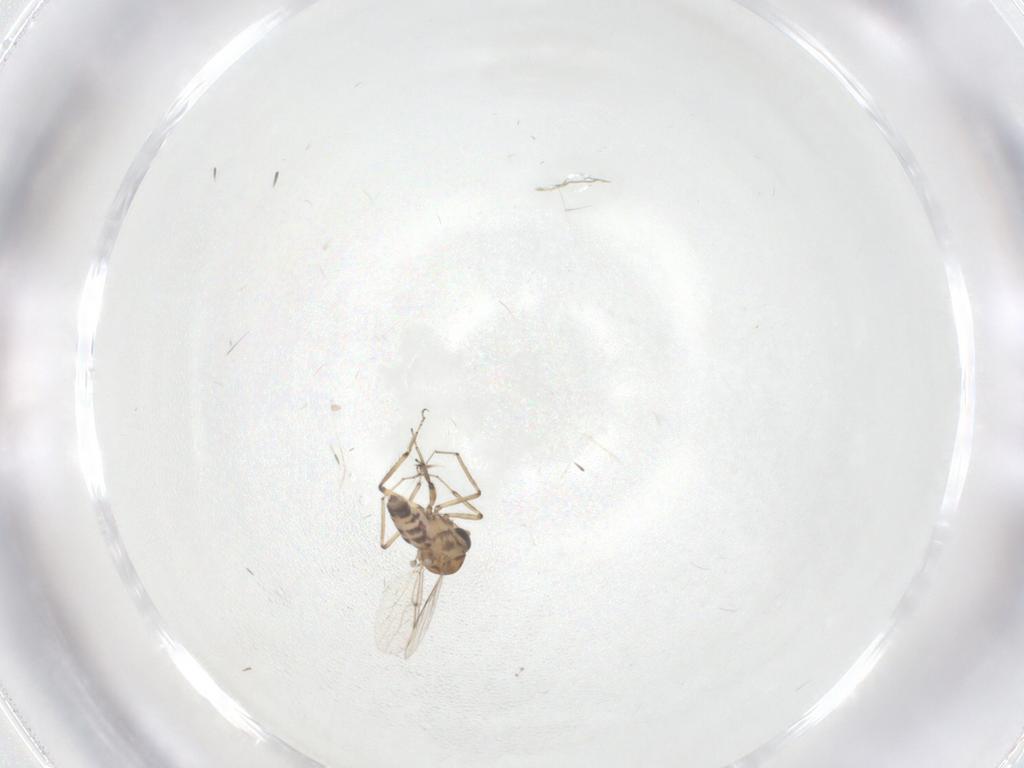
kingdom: Animalia
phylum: Arthropoda
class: Insecta
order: Diptera
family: Ceratopogonidae
